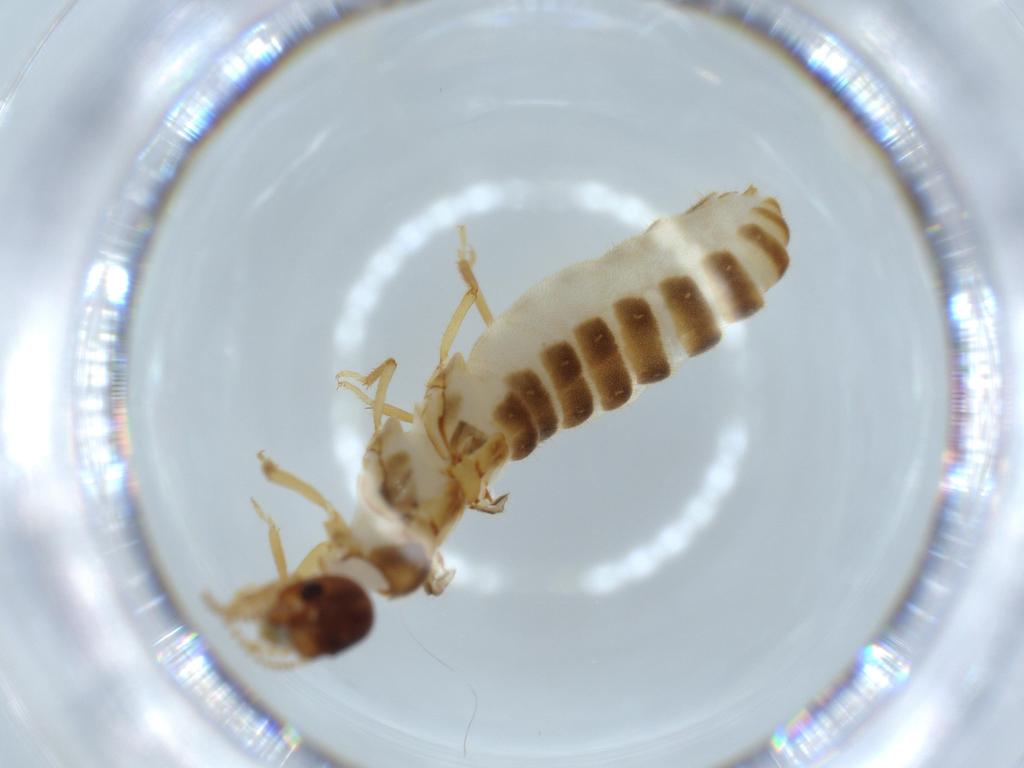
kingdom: Animalia
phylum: Arthropoda
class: Insecta
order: Blattodea
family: Termitidae
